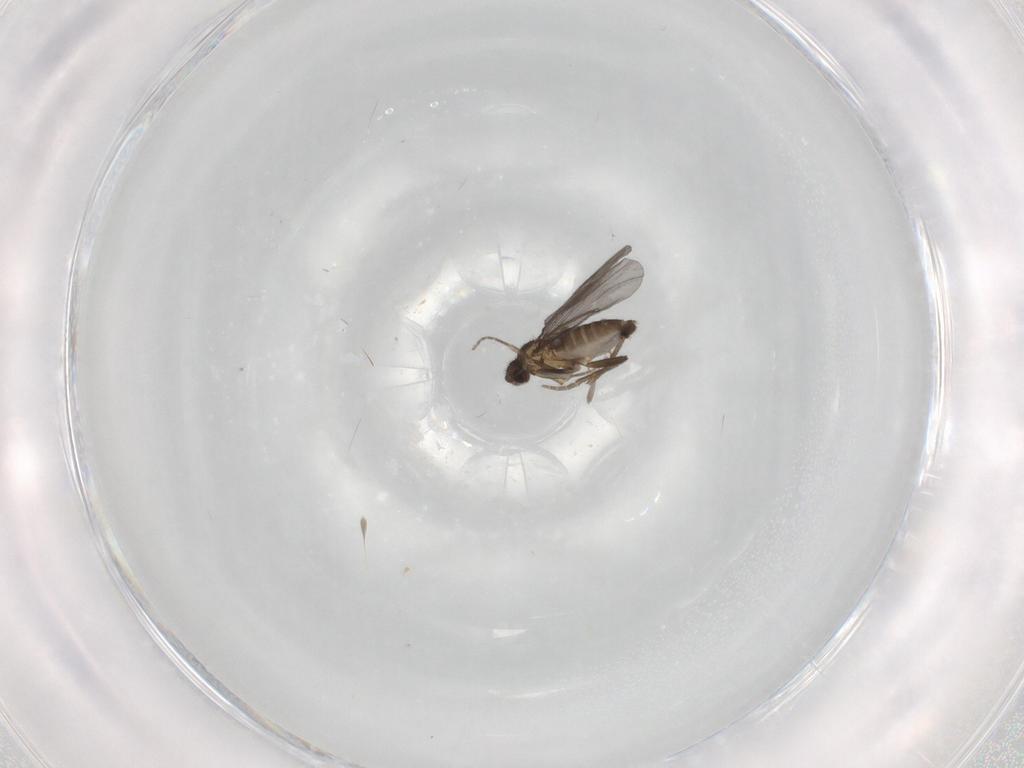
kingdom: Animalia
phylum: Arthropoda
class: Insecta
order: Diptera
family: Phoridae
